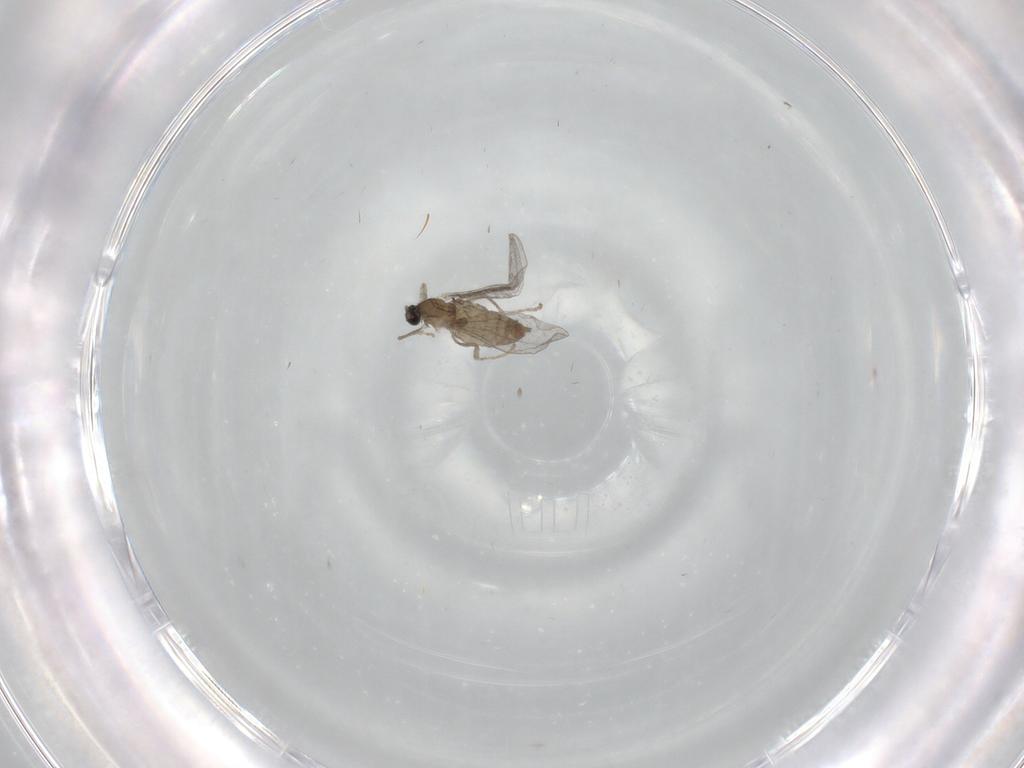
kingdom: Animalia
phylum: Arthropoda
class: Insecta
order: Diptera
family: Cecidomyiidae
